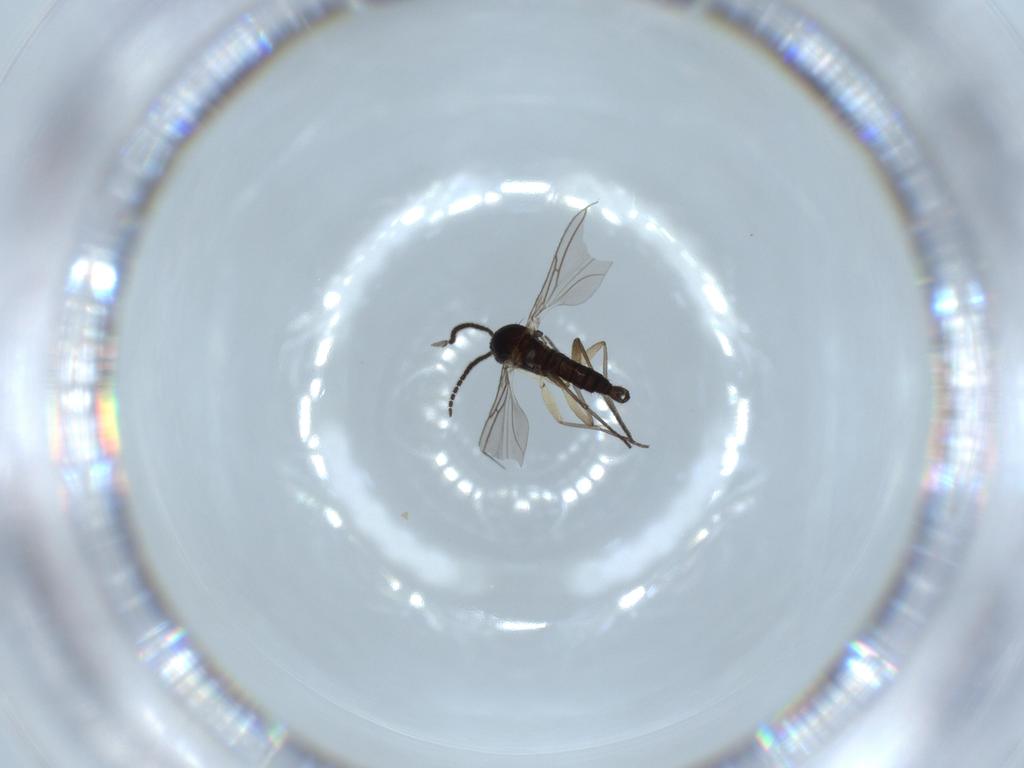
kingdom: Animalia
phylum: Arthropoda
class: Insecta
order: Diptera
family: Sciaridae
